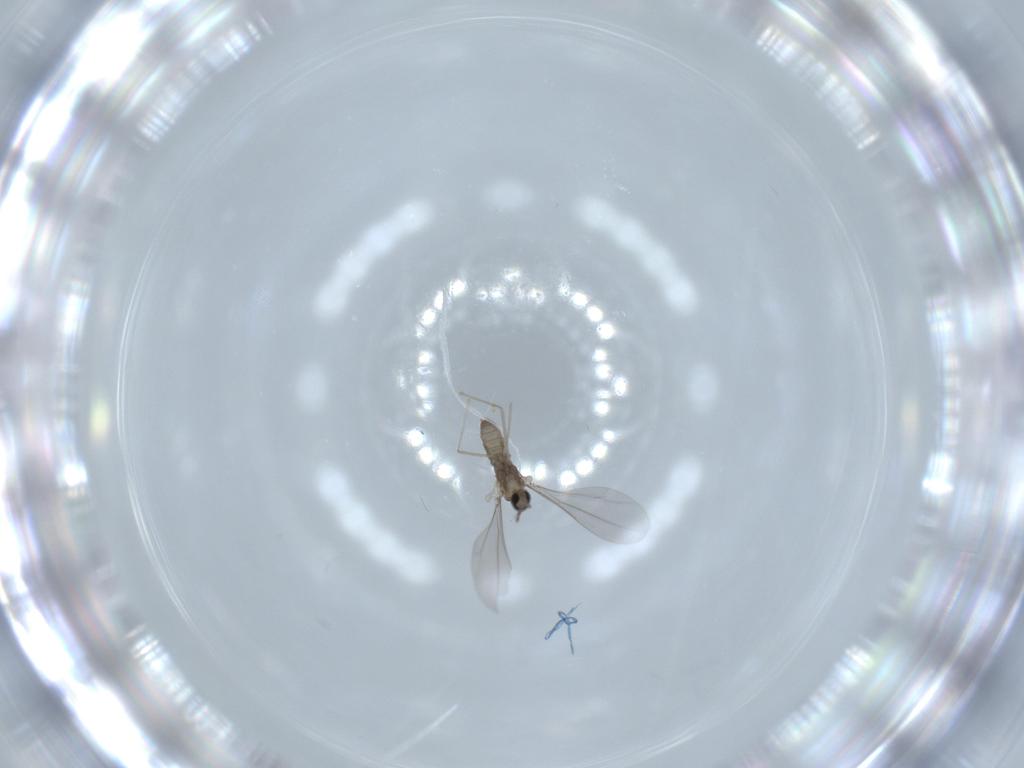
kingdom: Animalia
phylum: Arthropoda
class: Insecta
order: Diptera
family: Cecidomyiidae
